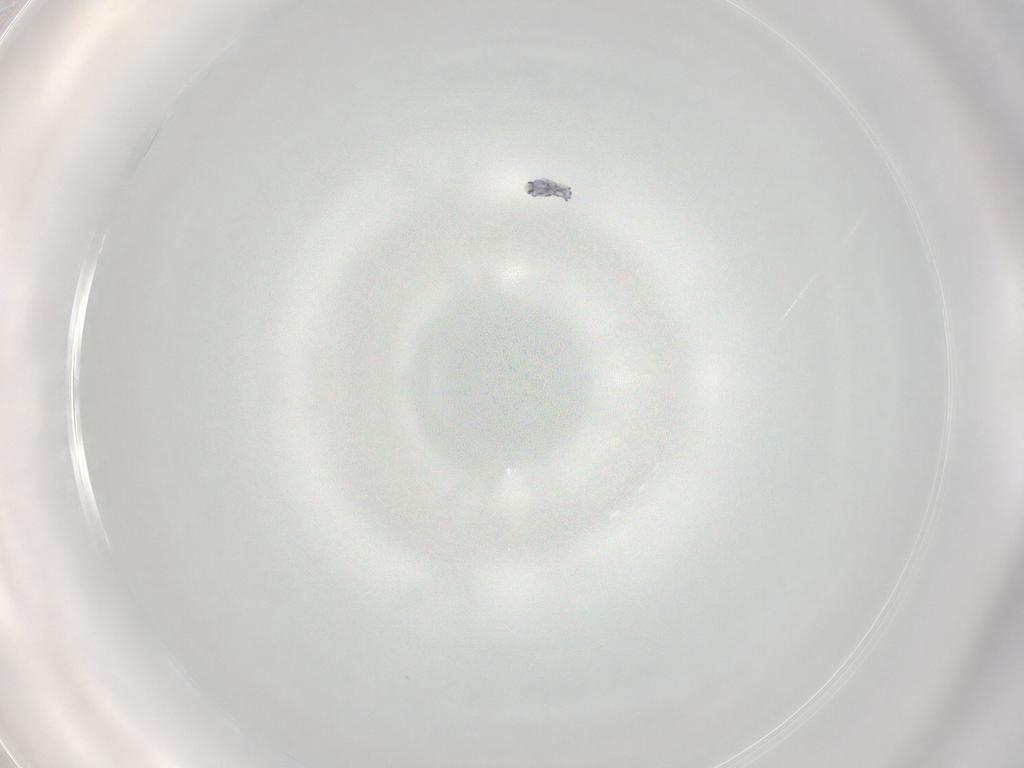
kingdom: Animalia
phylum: Arthropoda
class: Collembola
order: Entomobryomorpha
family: Entomobryidae
